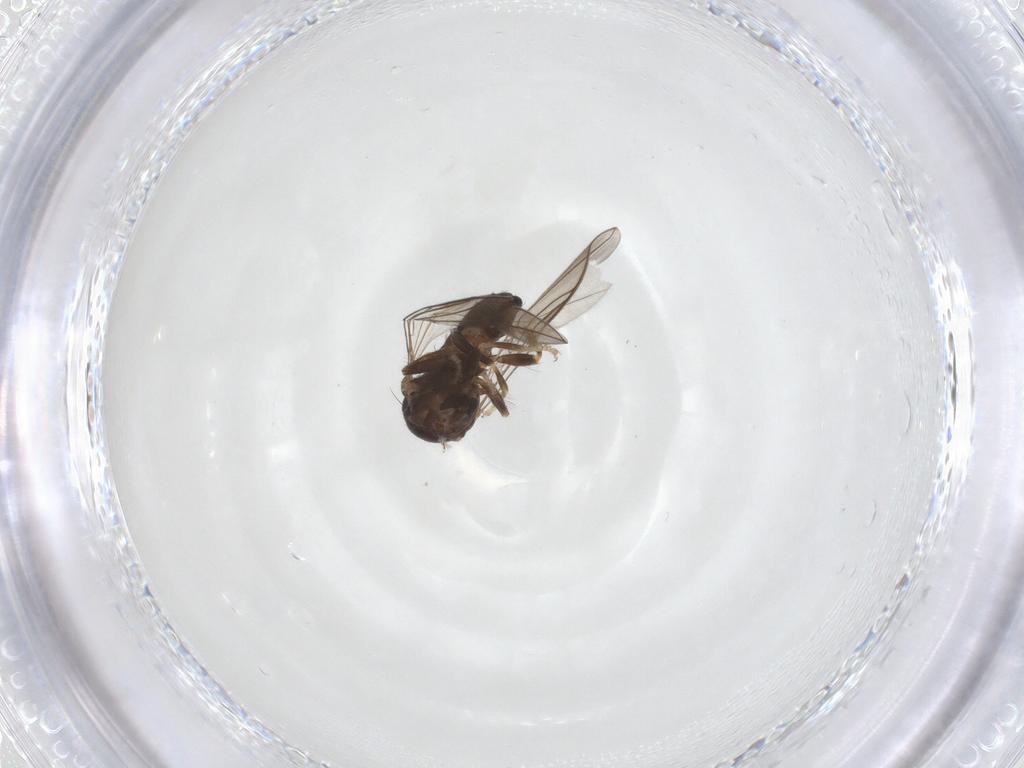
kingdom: Animalia
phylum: Arthropoda
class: Insecta
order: Diptera
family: Pipunculidae
